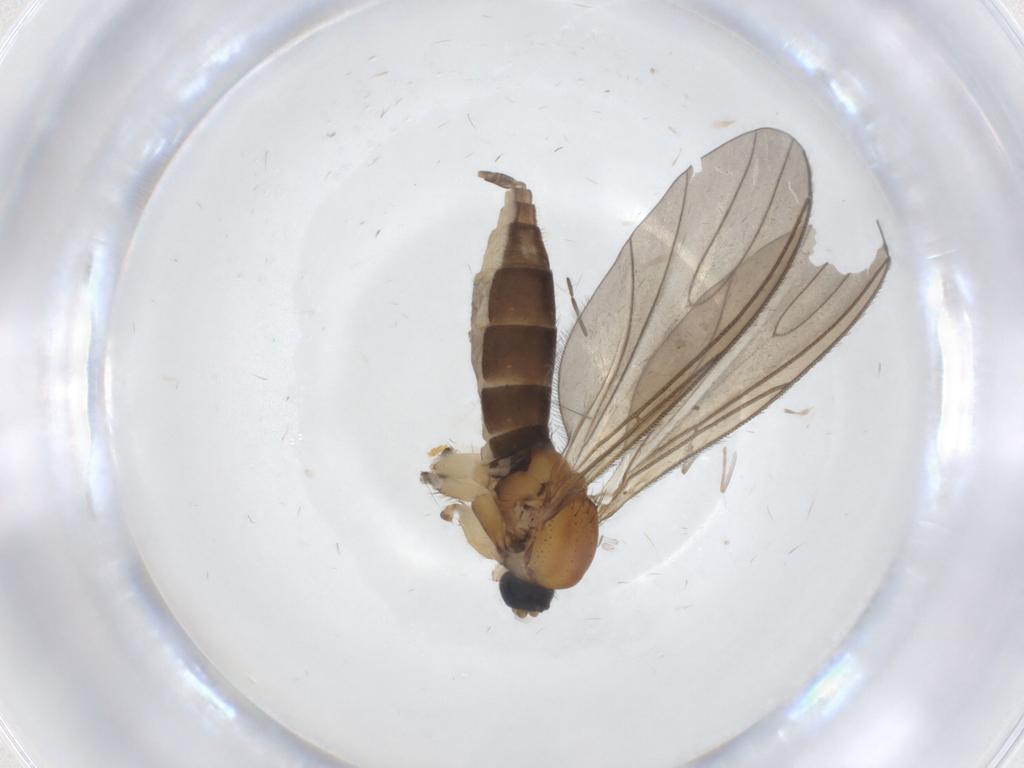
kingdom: Animalia
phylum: Arthropoda
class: Insecta
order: Diptera
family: Sciaridae
